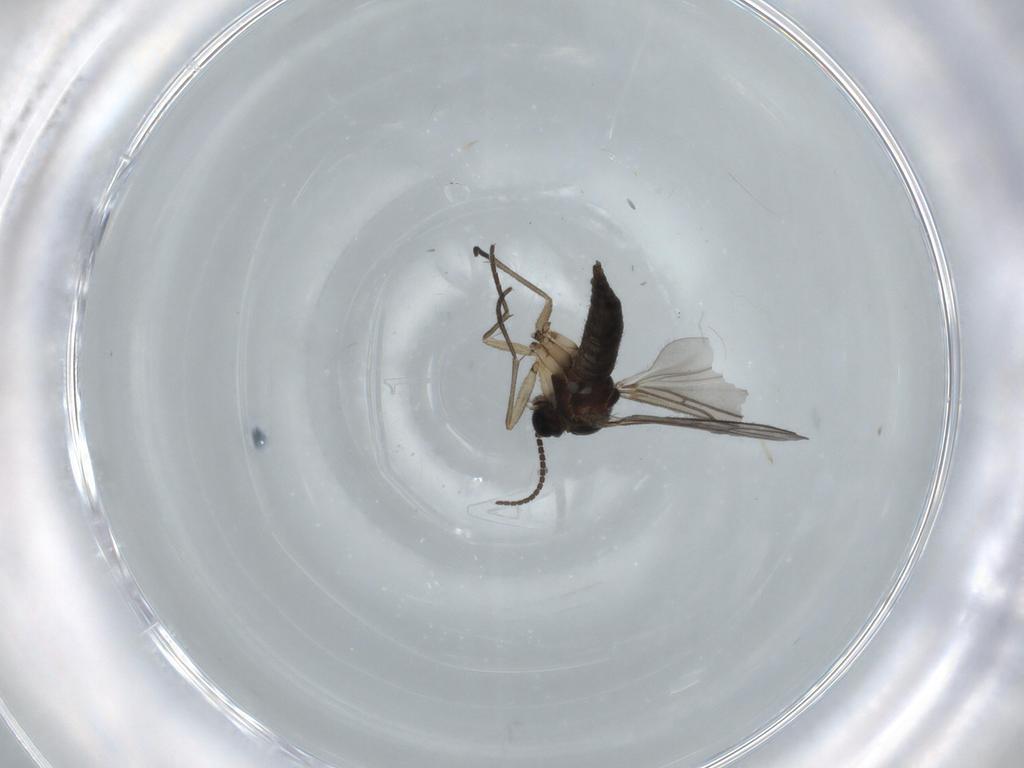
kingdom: Animalia
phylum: Arthropoda
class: Insecta
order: Diptera
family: Sciaridae
